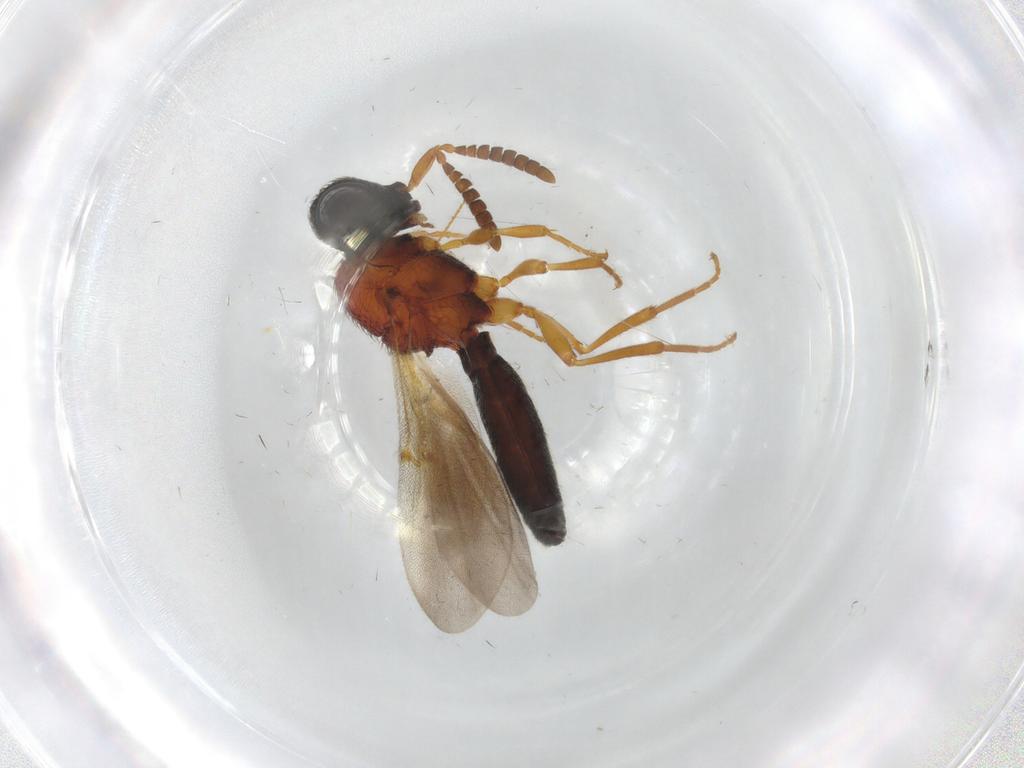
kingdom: Animalia
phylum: Arthropoda
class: Insecta
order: Hymenoptera
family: Scelionidae
